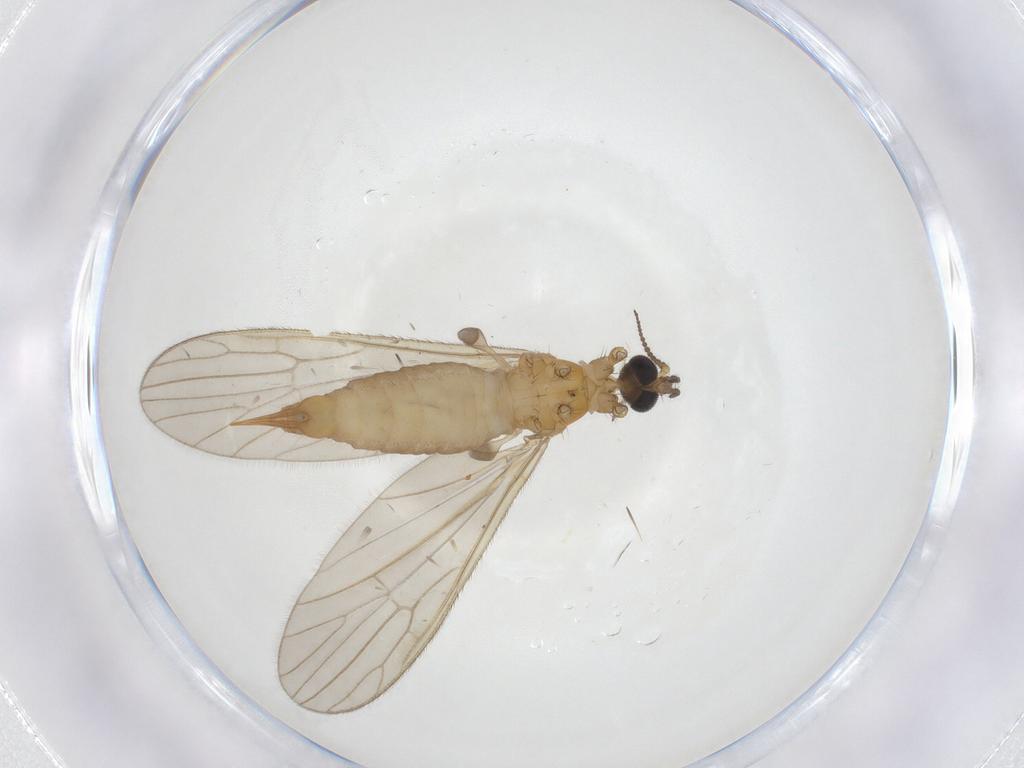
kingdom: Animalia
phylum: Arthropoda
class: Insecta
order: Diptera
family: Limoniidae
